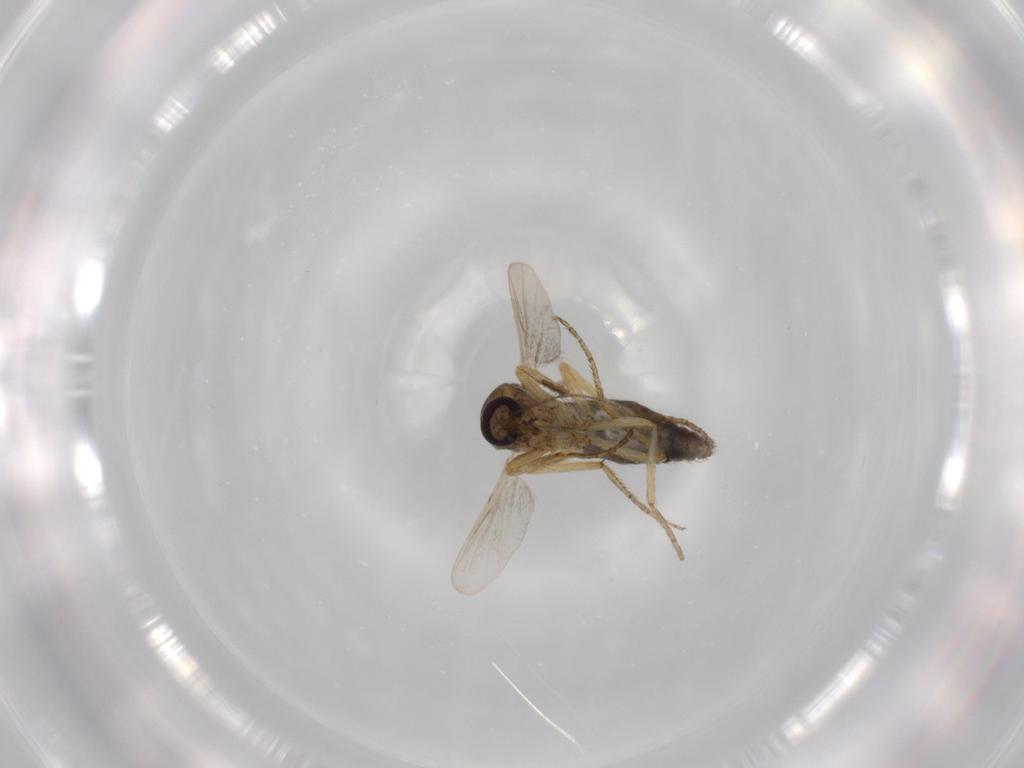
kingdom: Animalia
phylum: Arthropoda
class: Insecta
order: Diptera
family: Ceratopogonidae
